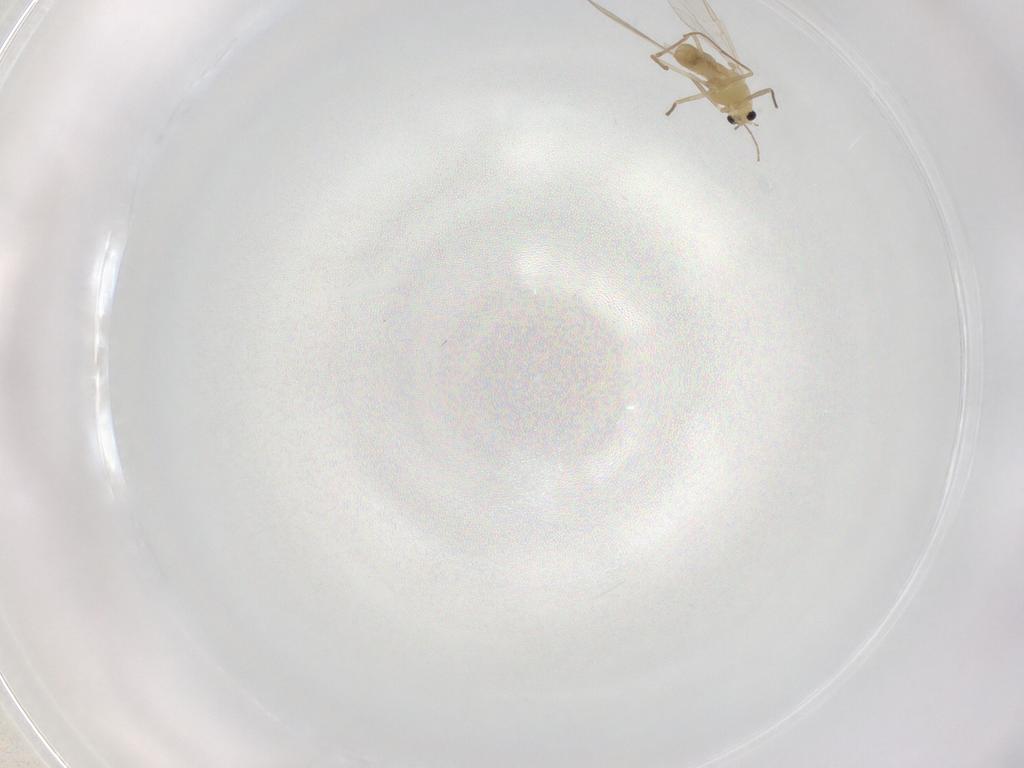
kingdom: Animalia
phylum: Arthropoda
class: Insecta
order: Diptera
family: Chironomidae
